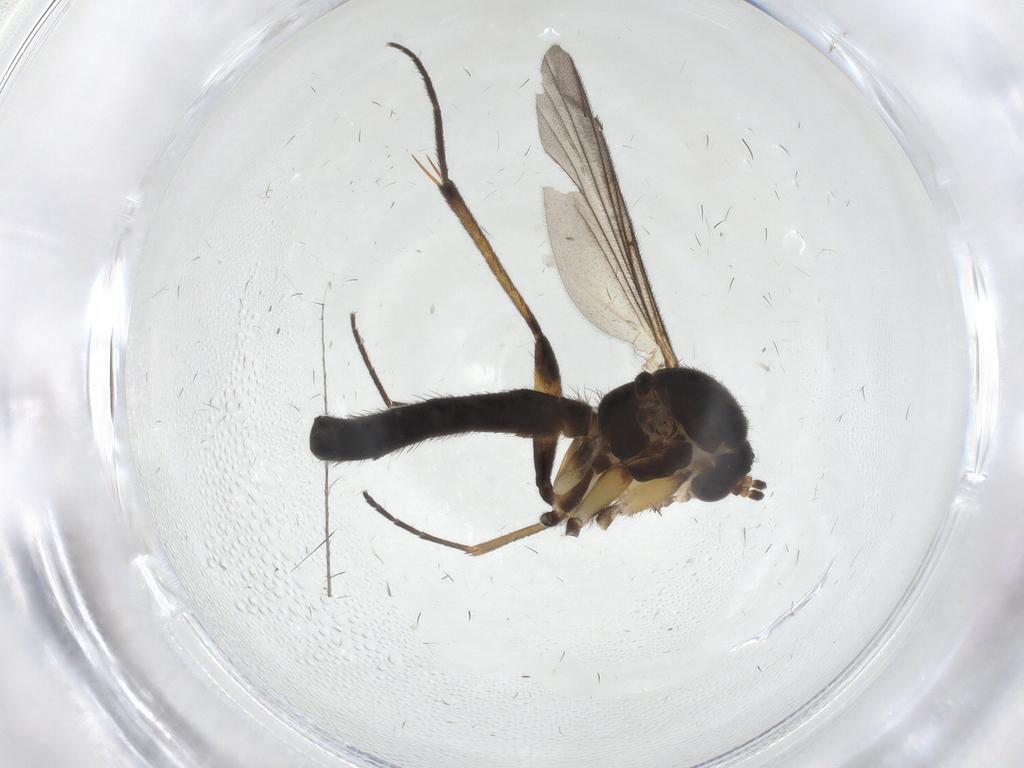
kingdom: Animalia
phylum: Arthropoda
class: Insecta
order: Diptera
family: Mycetophilidae
